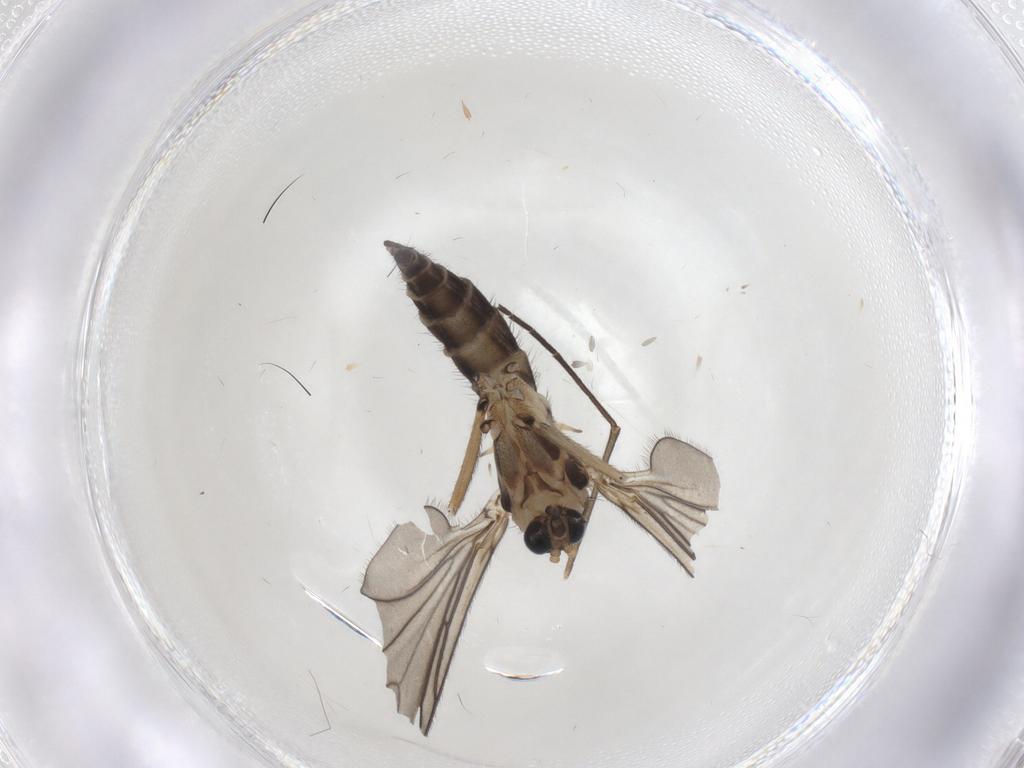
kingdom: Animalia
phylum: Arthropoda
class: Insecta
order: Diptera
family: Sciaridae
